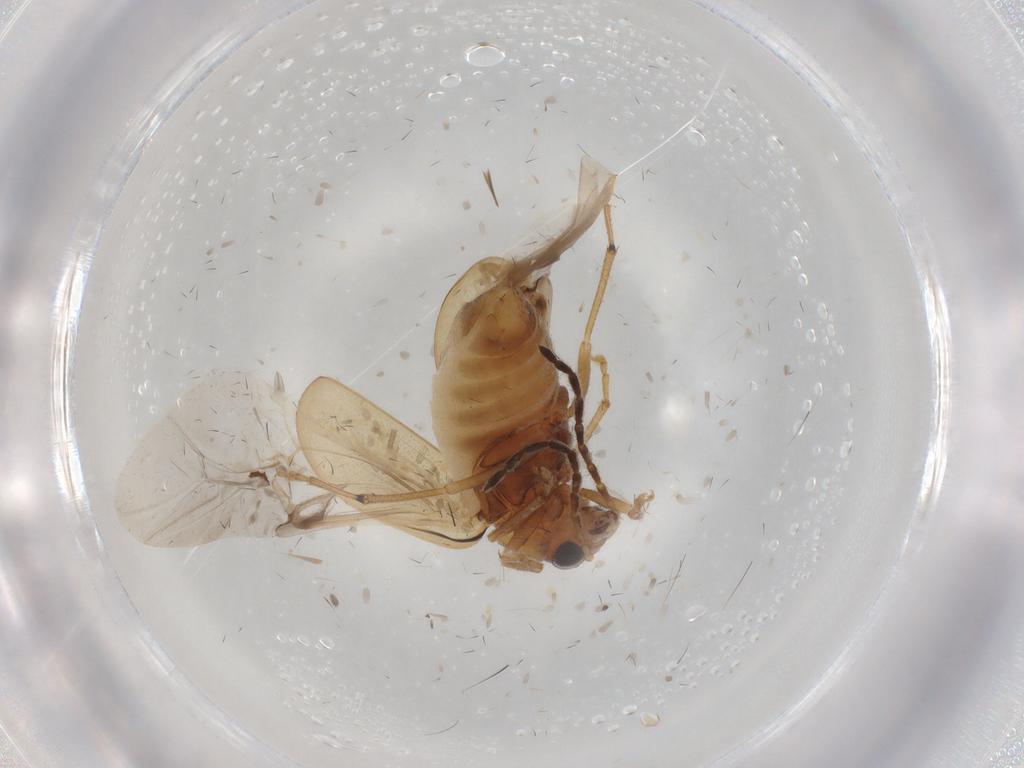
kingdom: Animalia
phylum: Arthropoda
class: Insecta
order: Coleoptera
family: Chrysomelidae
